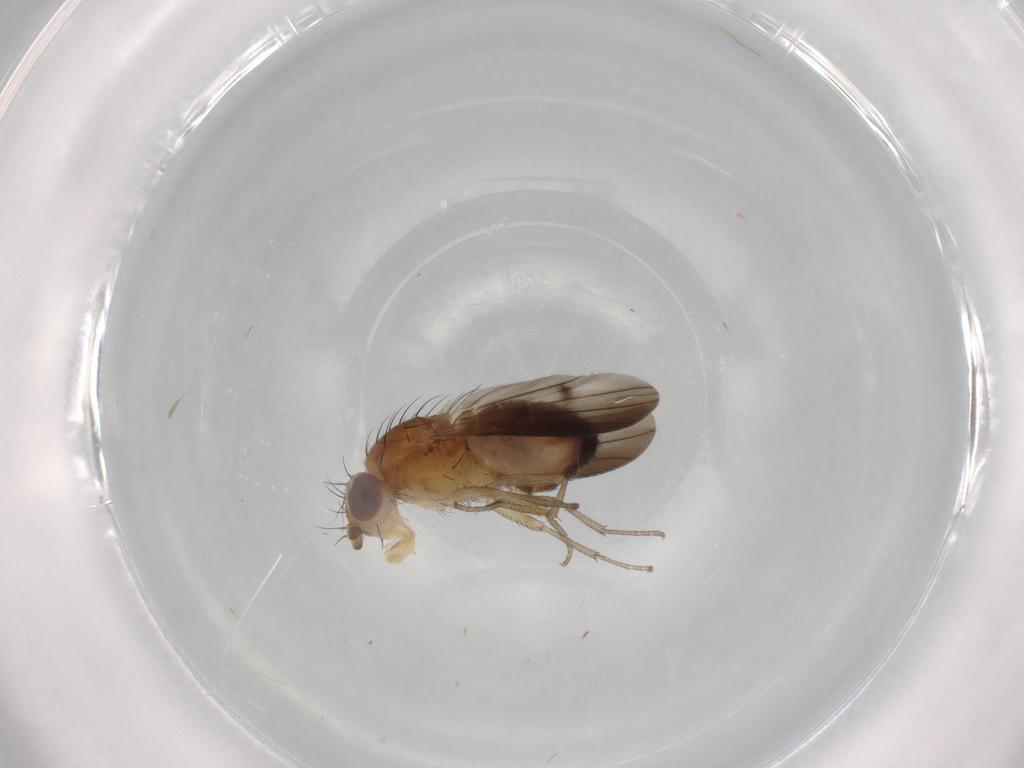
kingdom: Animalia
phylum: Arthropoda
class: Insecta
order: Diptera
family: Heleomyzidae
